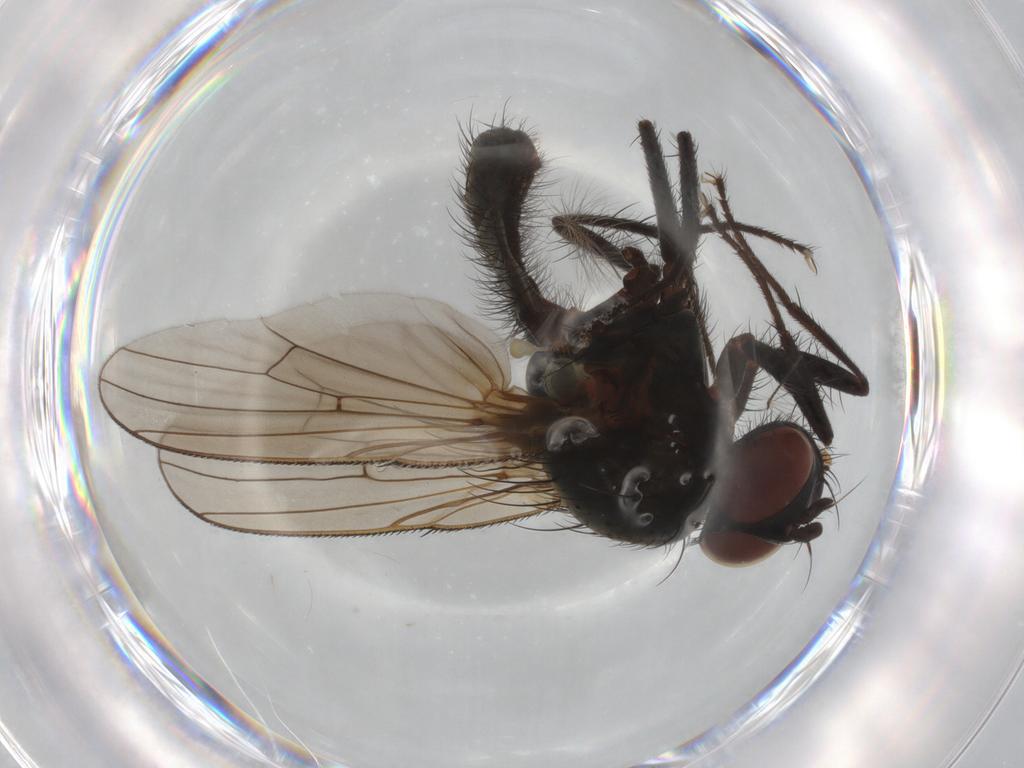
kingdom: Animalia
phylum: Arthropoda
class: Insecta
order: Diptera
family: Anthomyiidae
